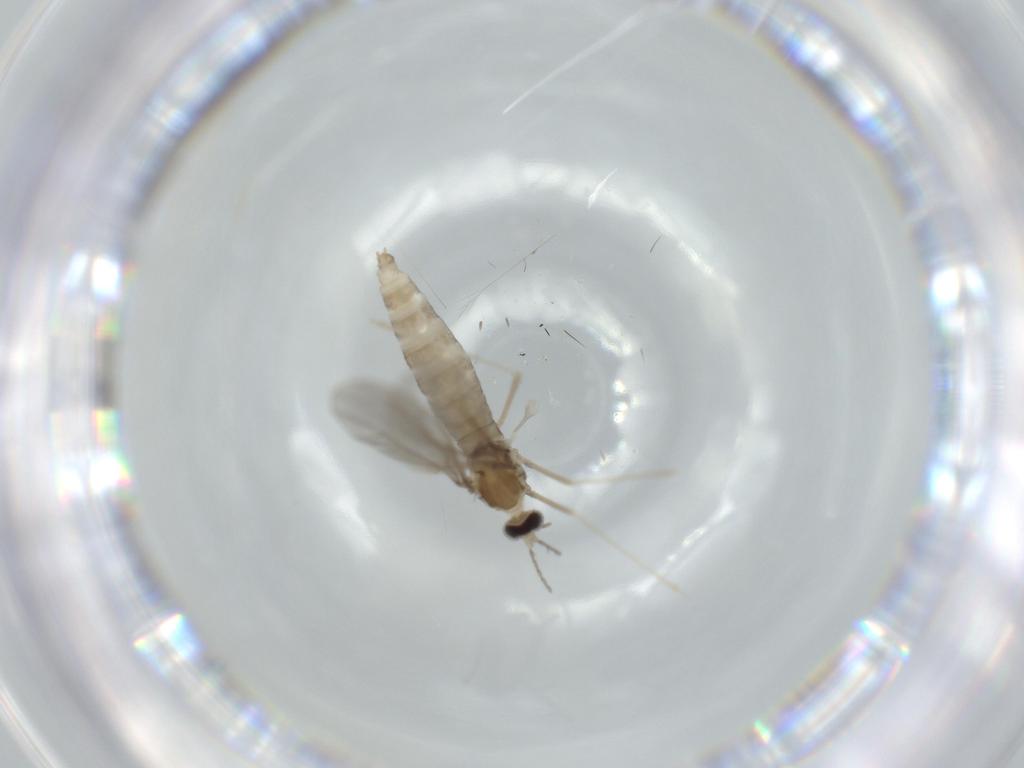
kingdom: Animalia
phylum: Arthropoda
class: Insecta
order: Diptera
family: Cecidomyiidae
